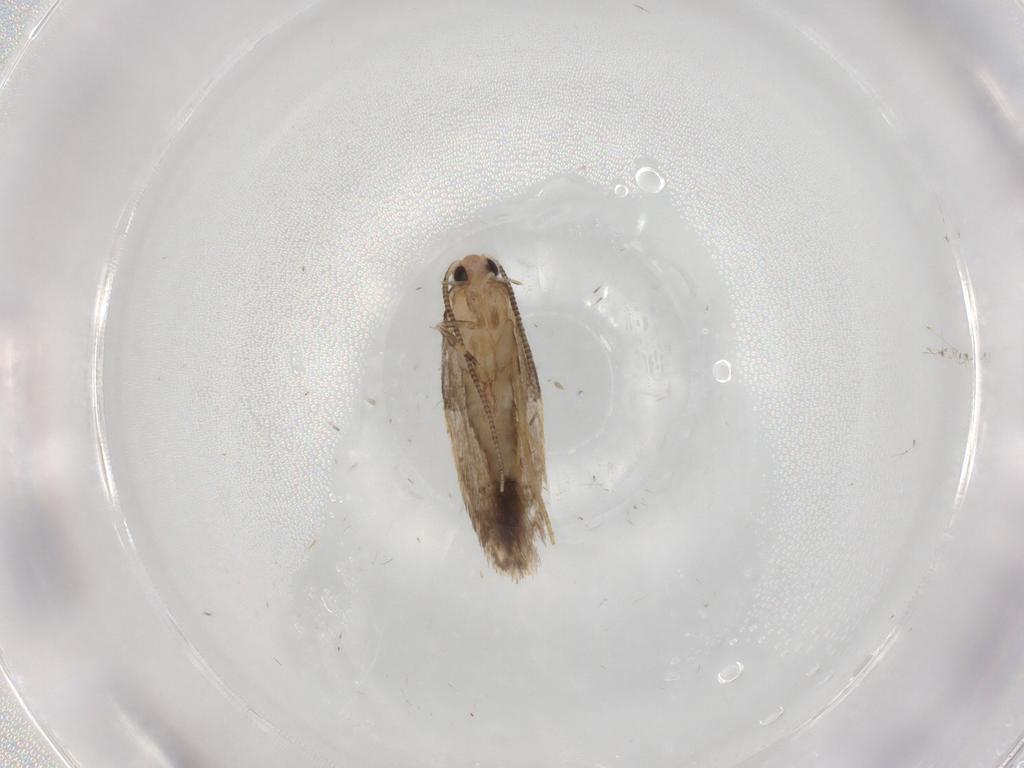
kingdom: Animalia
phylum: Arthropoda
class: Insecta
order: Lepidoptera
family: Tineidae
